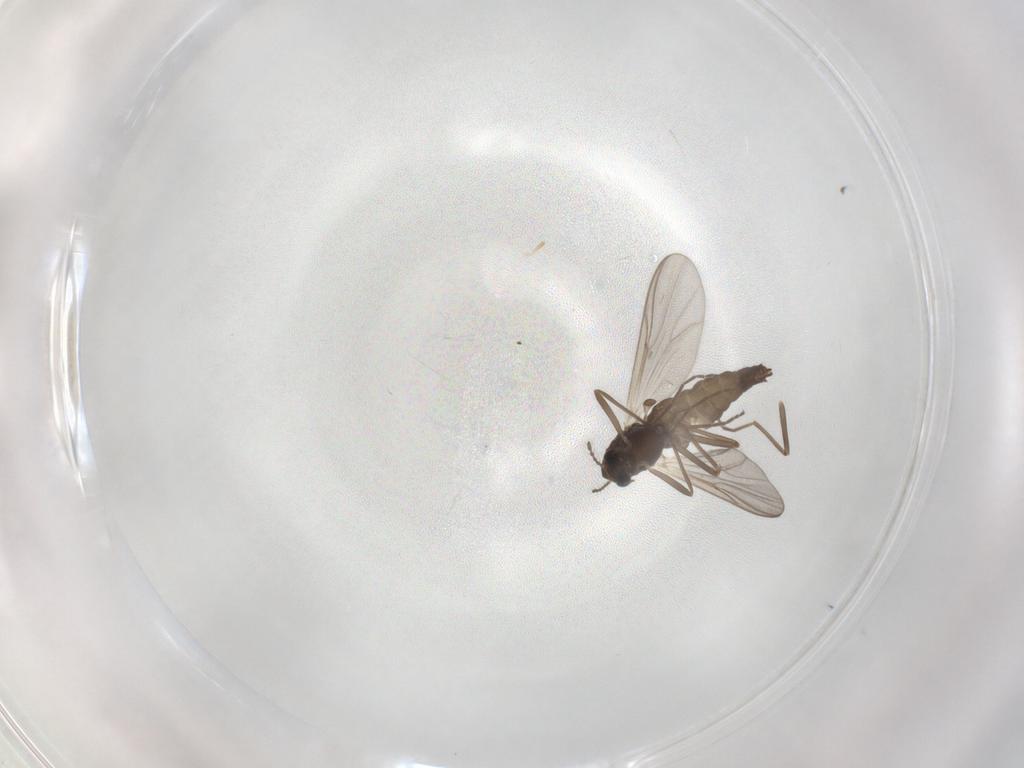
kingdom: Animalia
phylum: Arthropoda
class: Insecta
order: Diptera
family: Chironomidae
